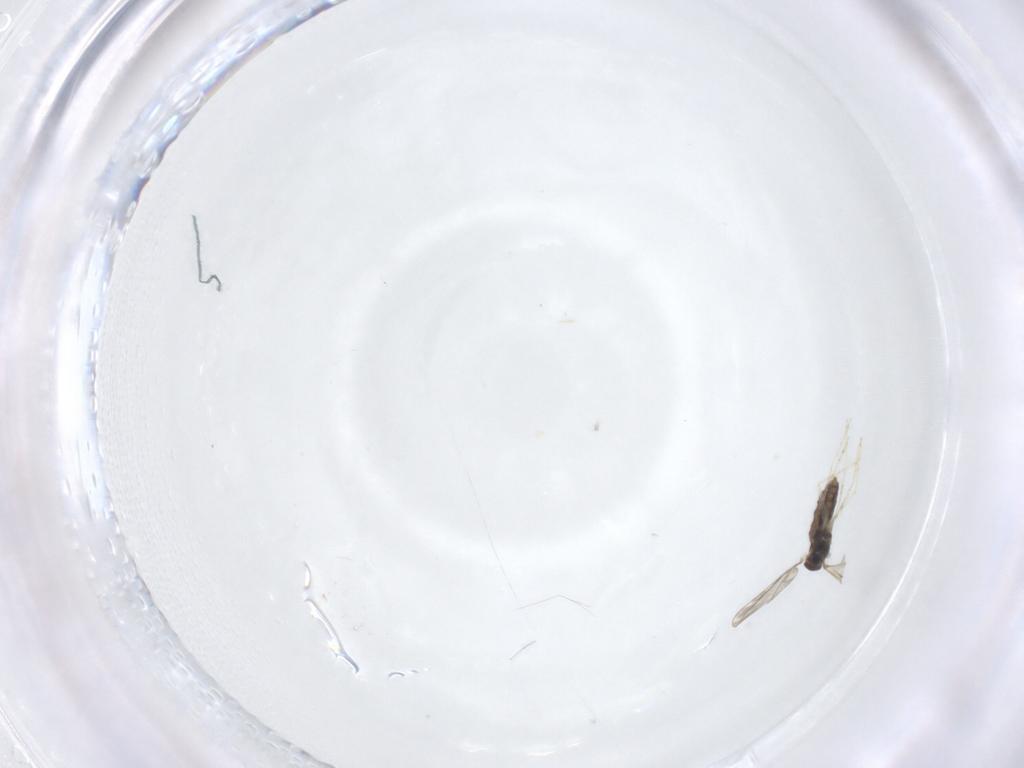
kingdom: Animalia
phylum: Arthropoda
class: Insecta
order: Diptera
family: Cecidomyiidae
